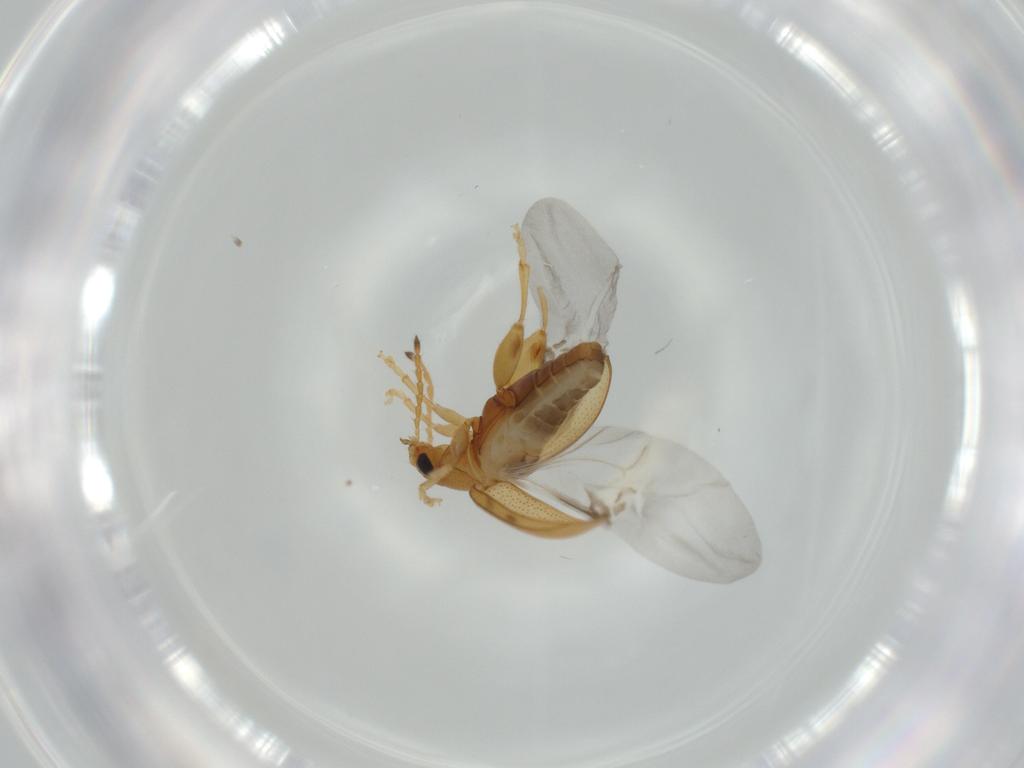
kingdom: Animalia
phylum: Arthropoda
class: Insecta
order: Coleoptera
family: Chrysomelidae
